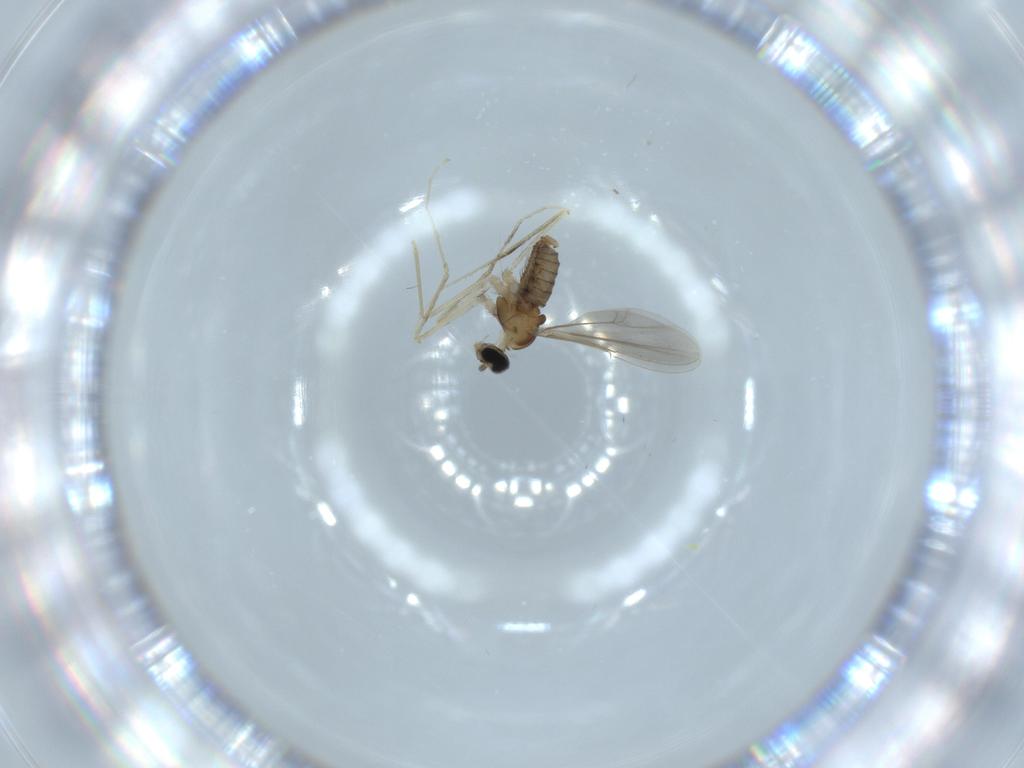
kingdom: Animalia
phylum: Arthropoda
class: Insecta
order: Diptera
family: Cecidomyiidae
